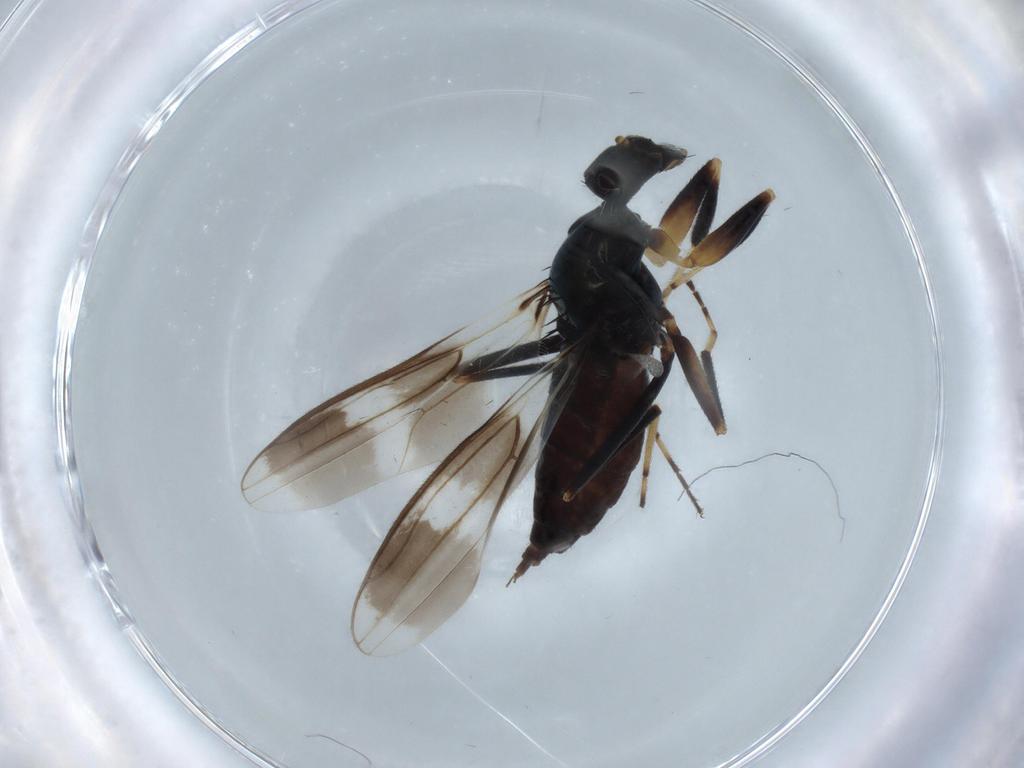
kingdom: Animalia
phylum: Arthropoda
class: Insecta
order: Diptera
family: Hybotidae
